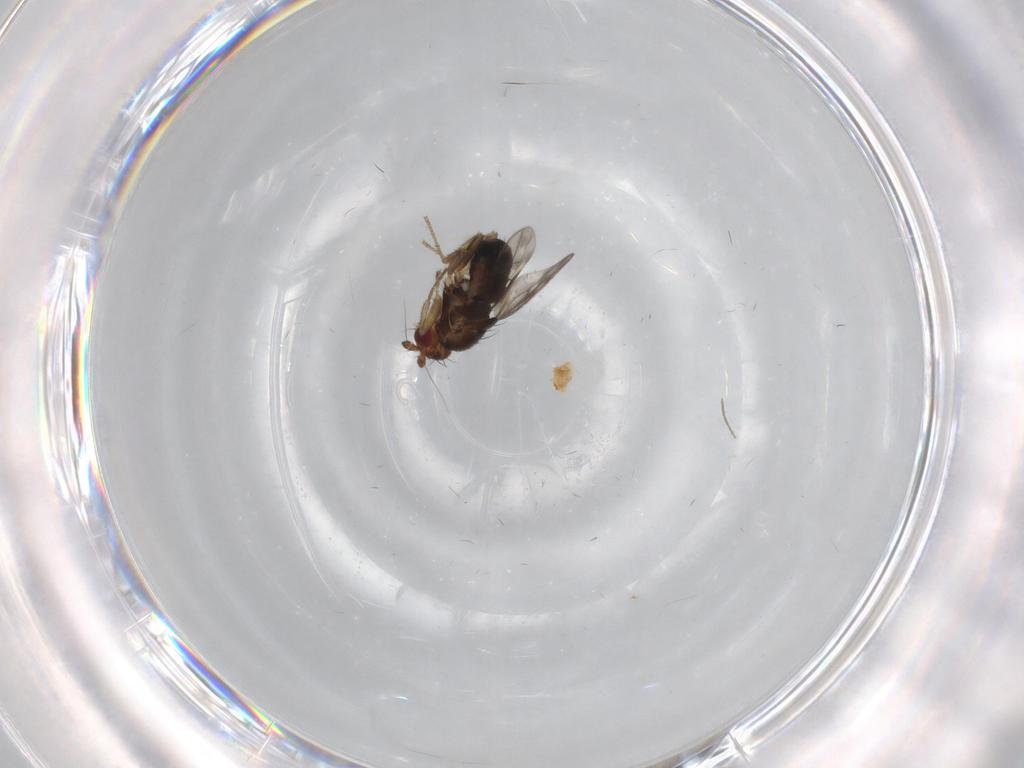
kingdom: Animalia
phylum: Arthropoda
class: Insecta
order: Diptera
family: Sphaeroceridae
